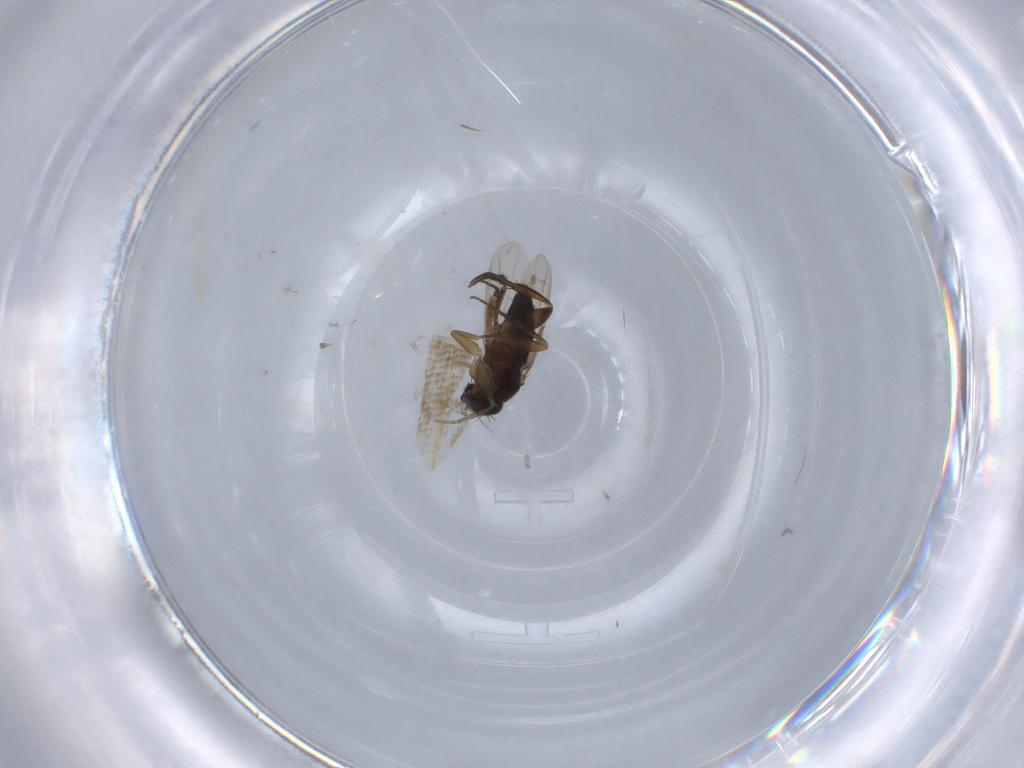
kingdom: Animalia
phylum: Arthropoda
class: Insecta
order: Diptera
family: Phoridae
